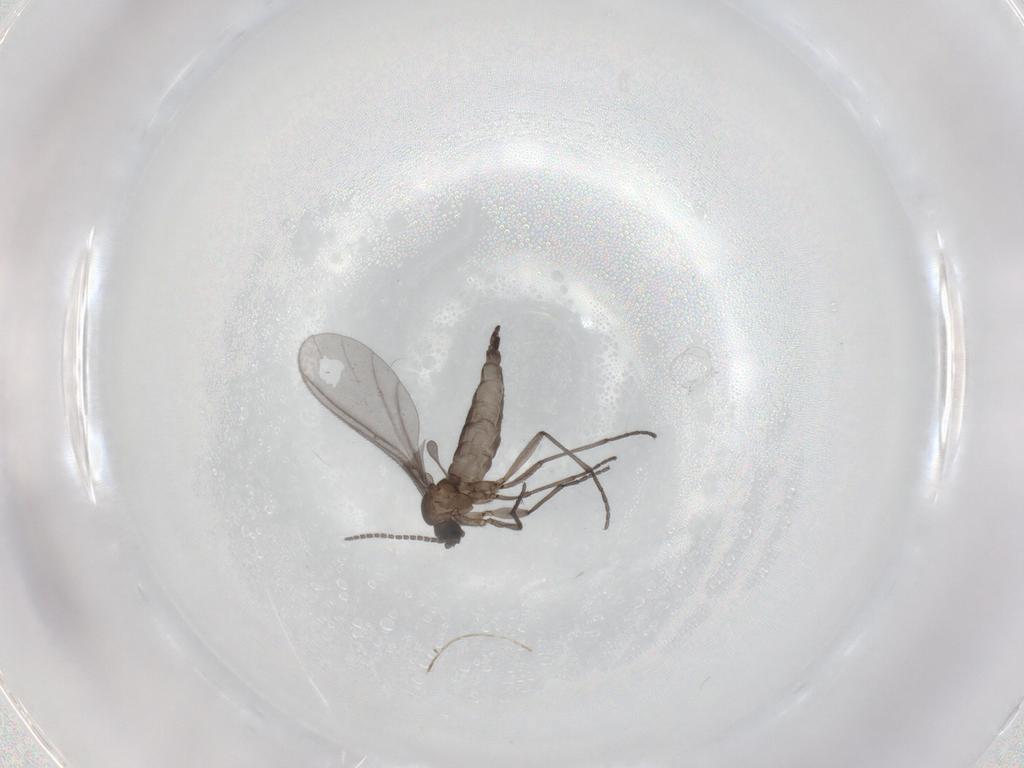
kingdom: Animalia
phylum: Arthropoda
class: Insecta
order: Diptera
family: Sciaridae
